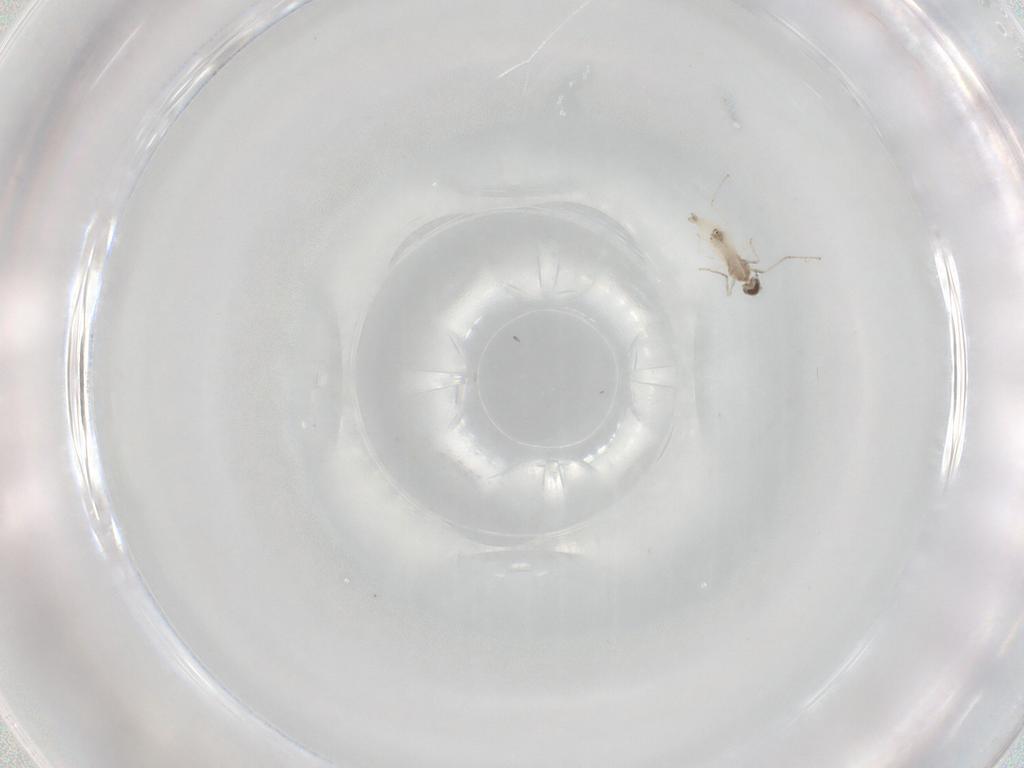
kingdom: Animalia
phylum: Arthropoda
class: Insecta
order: Diptera
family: Cecidomyiidae
